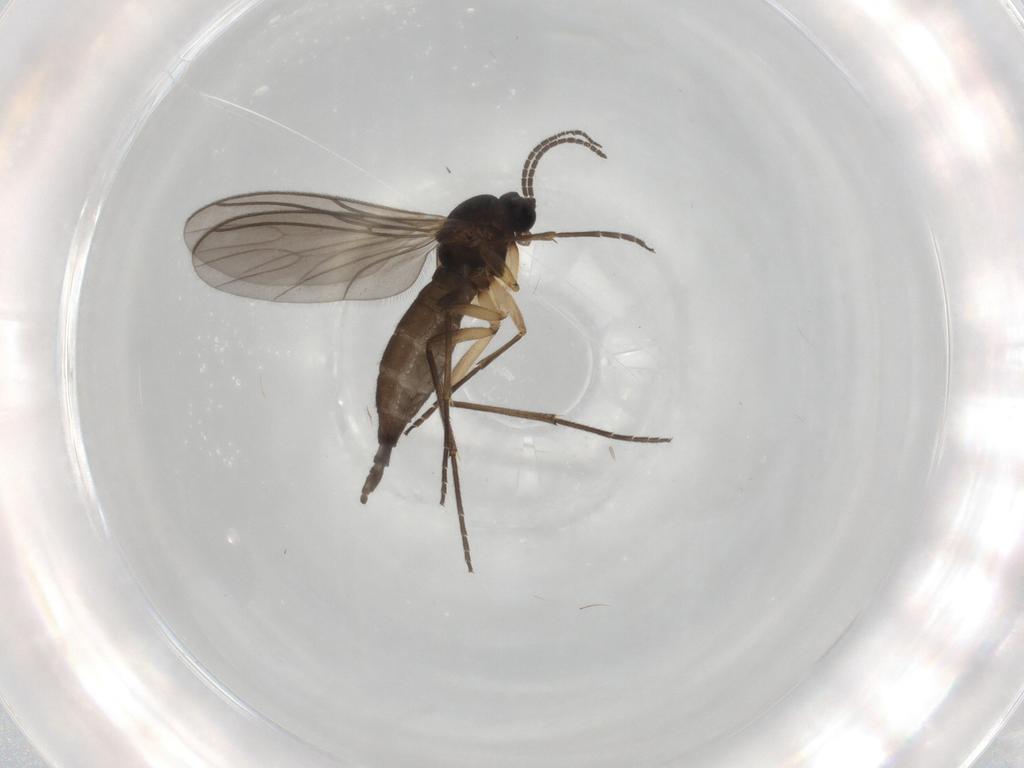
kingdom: Animalia
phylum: Arthropoda
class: Insecta
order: Diptera
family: Sciaridae
